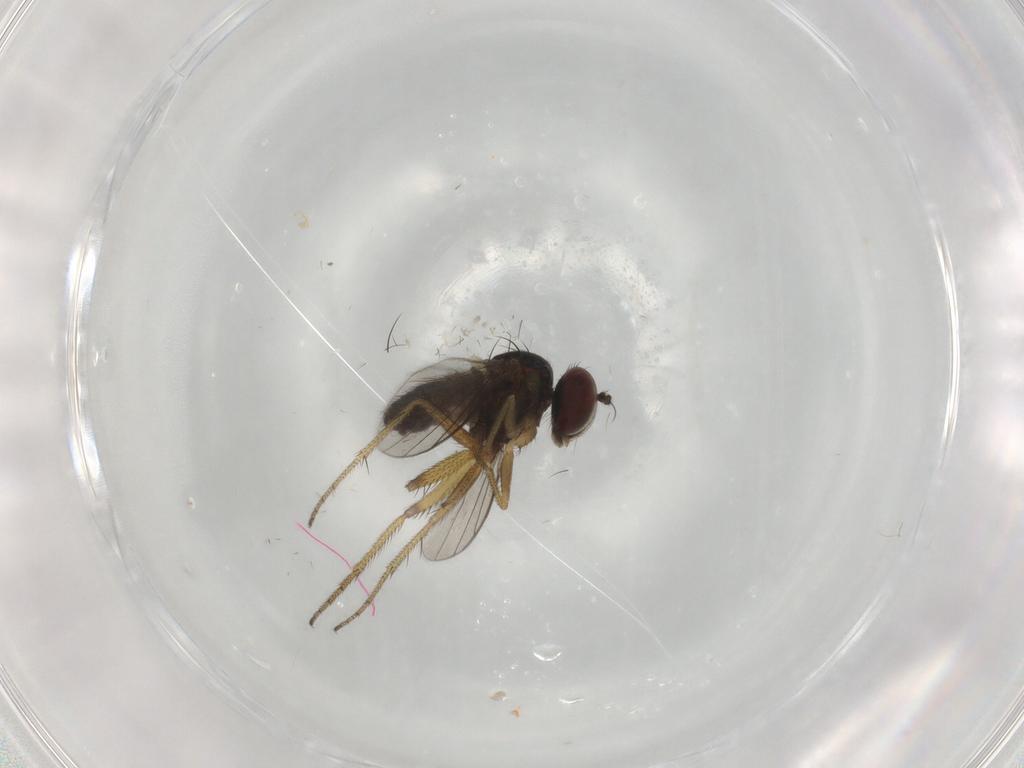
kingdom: Animalia
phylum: Arthropoda
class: Insecta
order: Diptera
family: Dolichopodidae
